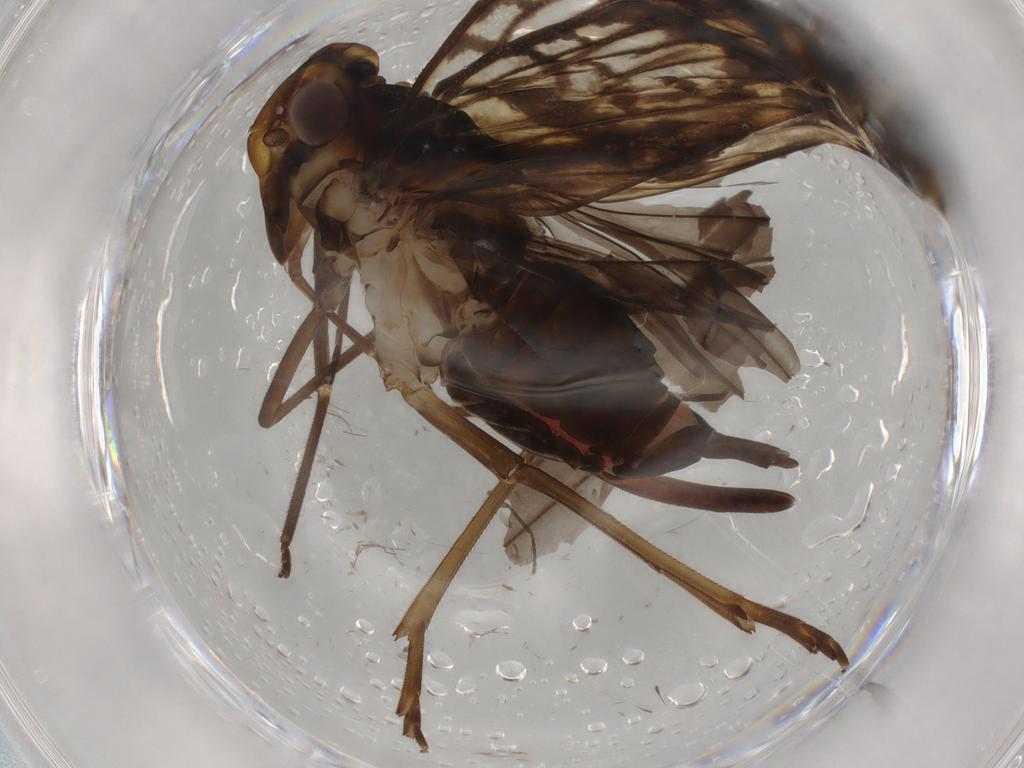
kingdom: Animalia
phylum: Arthropoda
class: Insecta
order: Hemiptera
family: Cixiidae
